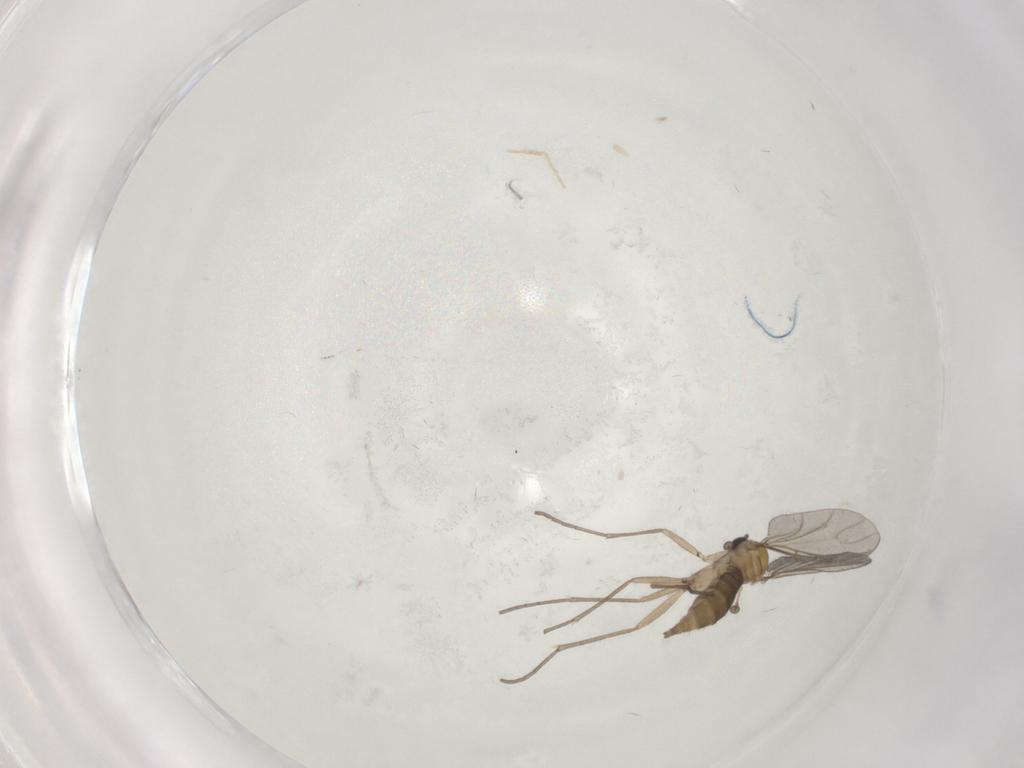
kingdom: Animalia
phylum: Arthropoda
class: Insecta
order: Diptera
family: Sciaridae
